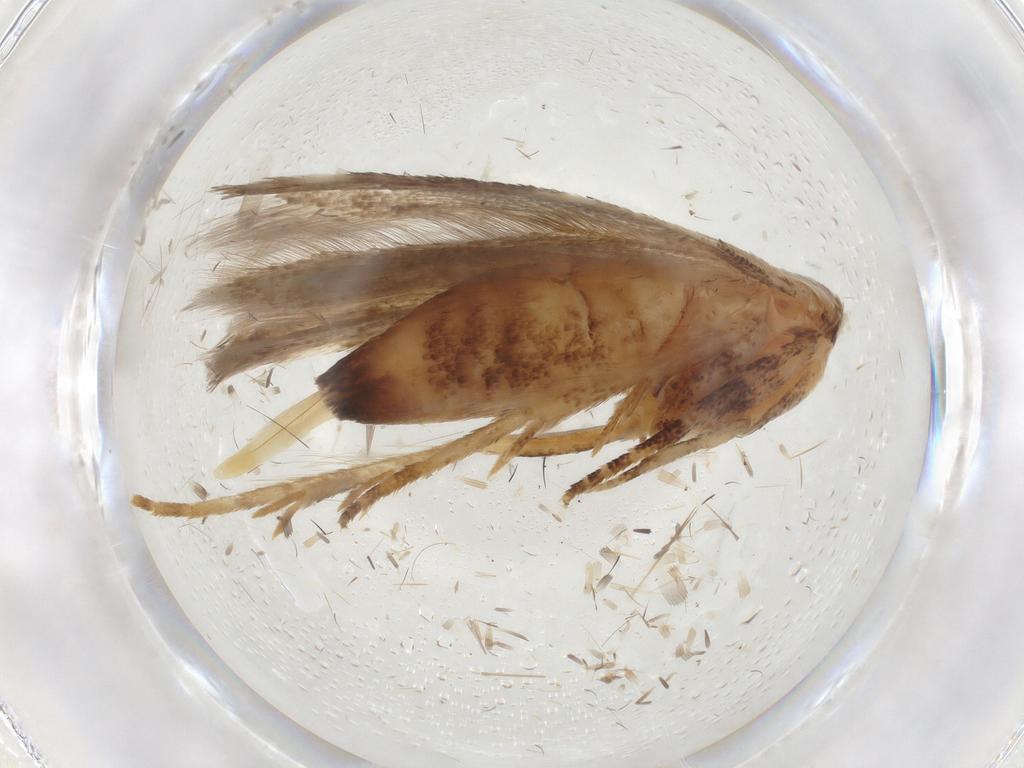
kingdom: Animalia
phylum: Arthropoda
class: Insecta
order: Lepidoptera
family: Gelechiidae
